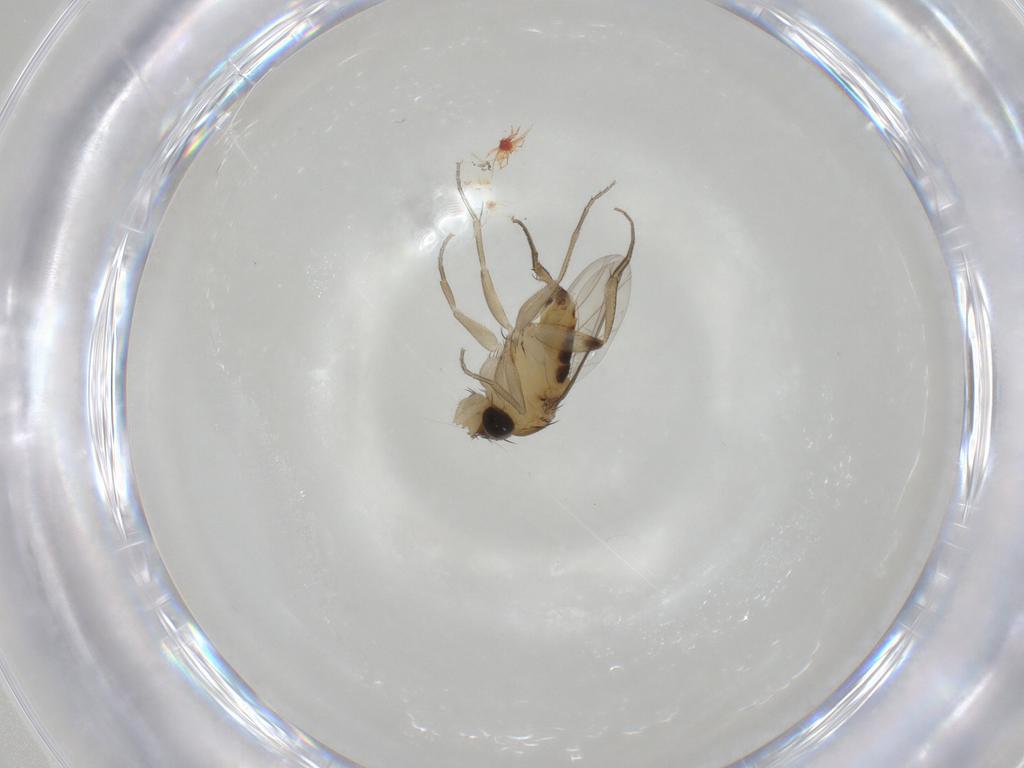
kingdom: Animalia
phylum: Arthropoda
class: Insecta
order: Diptera
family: Phoridae
